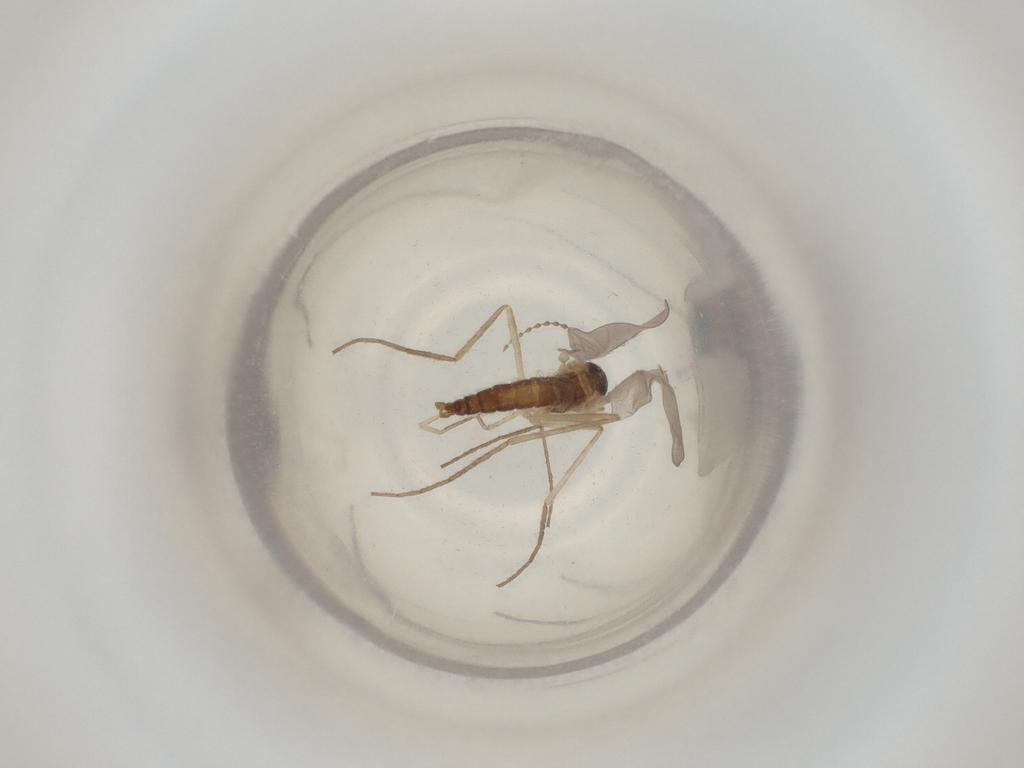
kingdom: Animalia
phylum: Arthropoda
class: Insecta
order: Diptera
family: Cecidomyiidae
